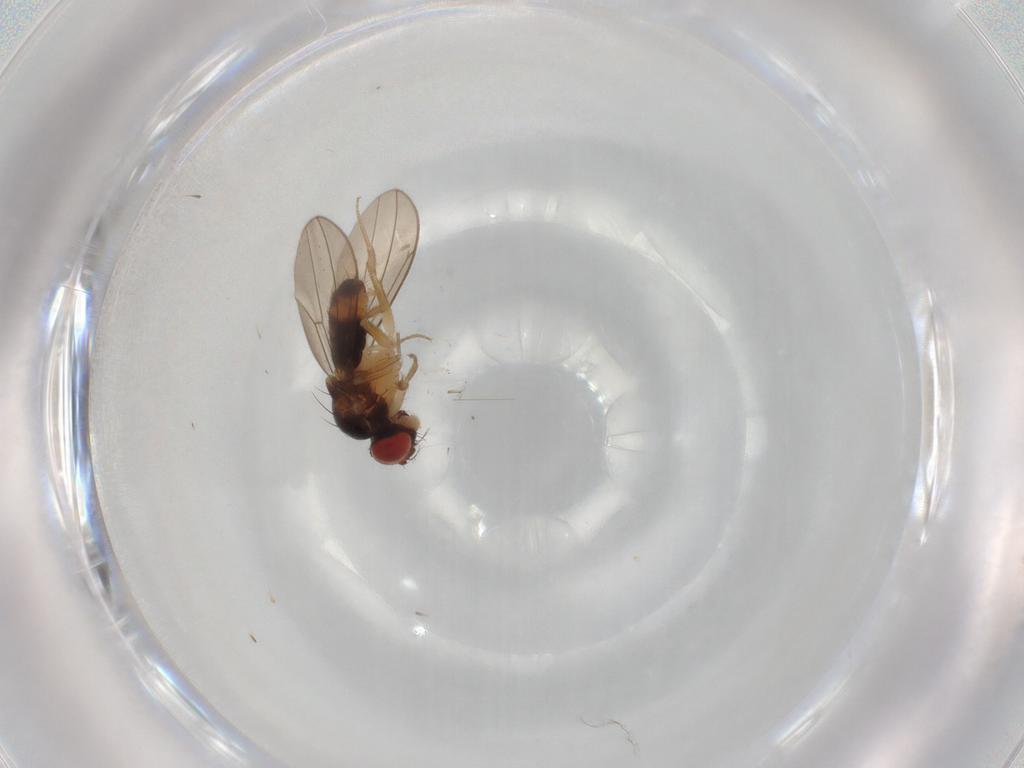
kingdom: Animalia
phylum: Arthropoda
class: Insecta
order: Diptera
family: Drosophilidae
